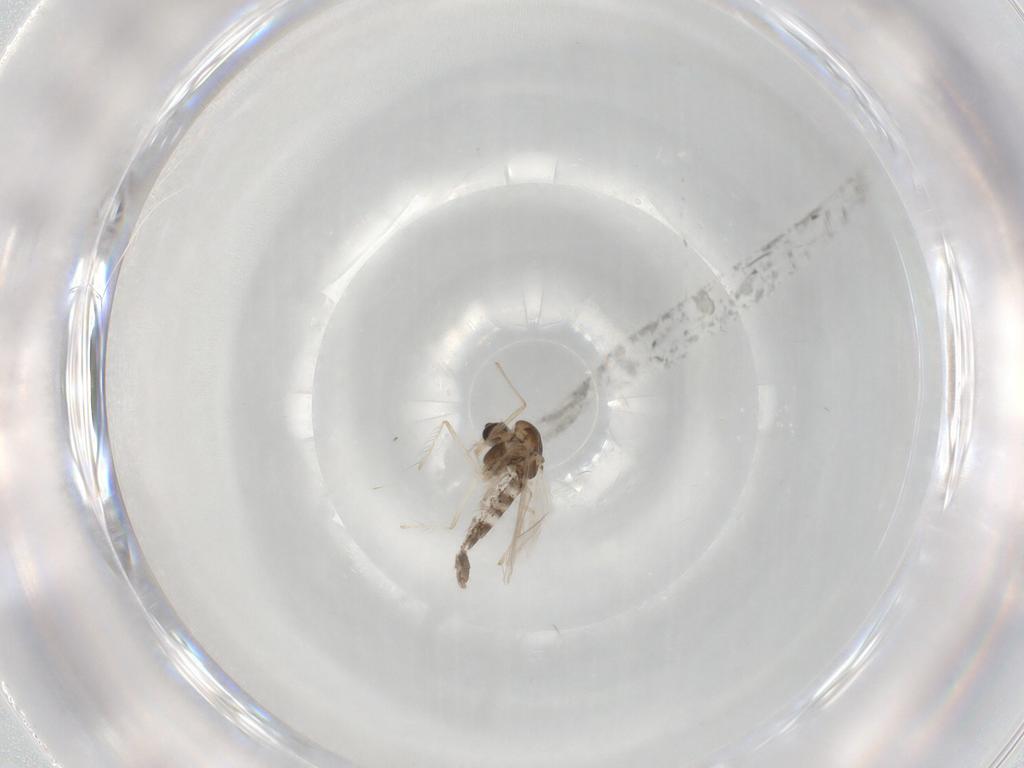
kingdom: Animalia
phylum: Arthropoda
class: Insecta
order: Diptera
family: Chironomidae
